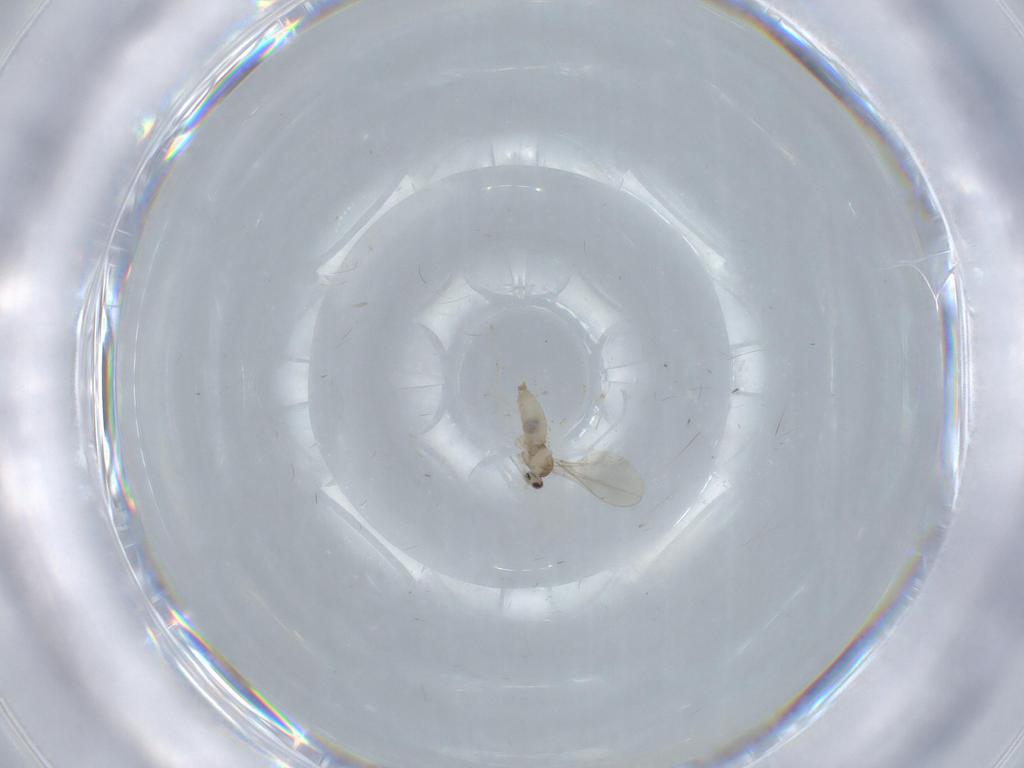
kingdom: Animalia
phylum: Arthropoda
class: Insecta
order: Diptera
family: Cecidomyiidae
